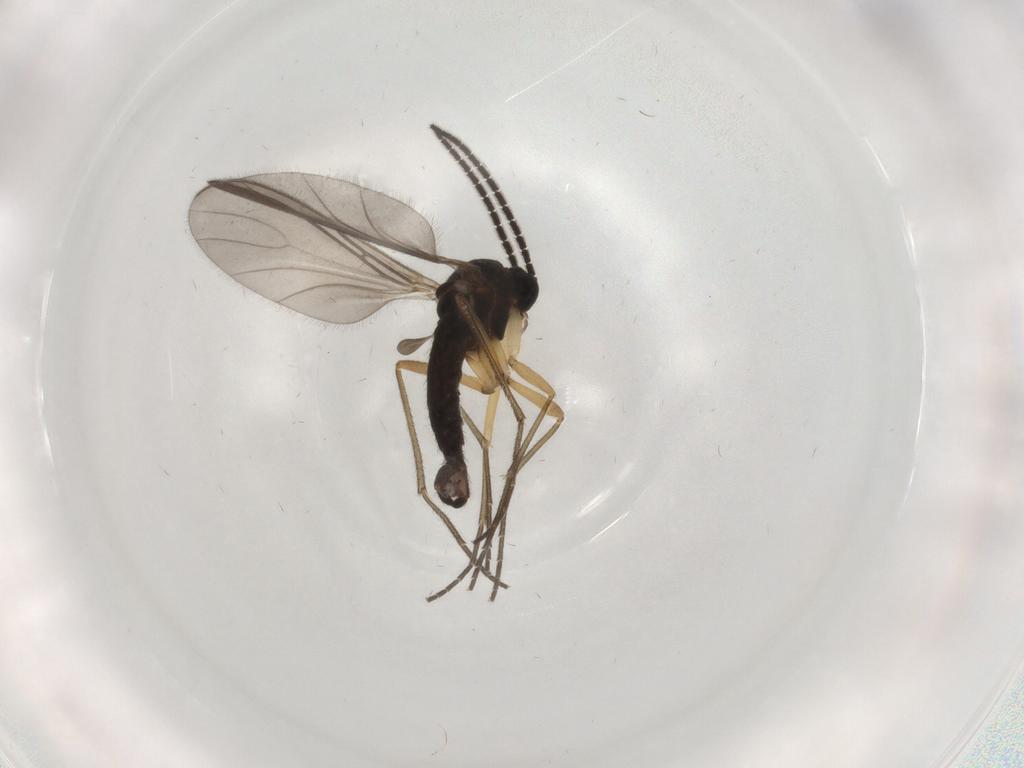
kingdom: Animalia
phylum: Arthropoda
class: Insecta
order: Diptera
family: Sciaridae
